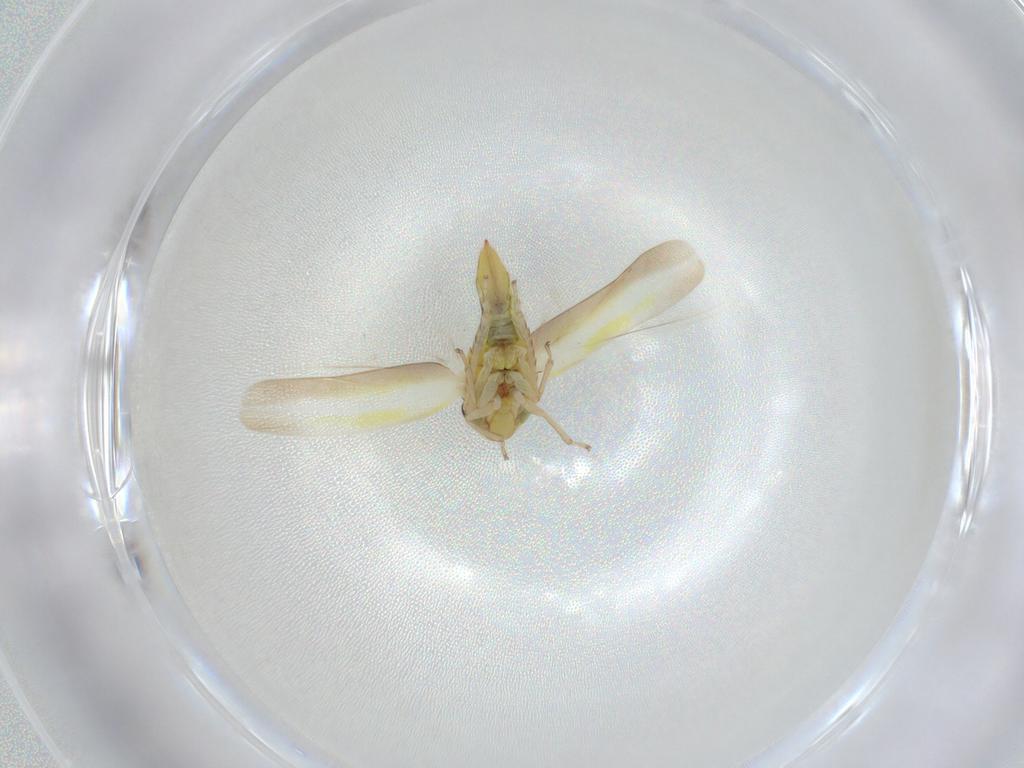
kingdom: Animalia
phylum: Arthropoda
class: Insecta
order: Hemiptera
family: Cicadellidae
